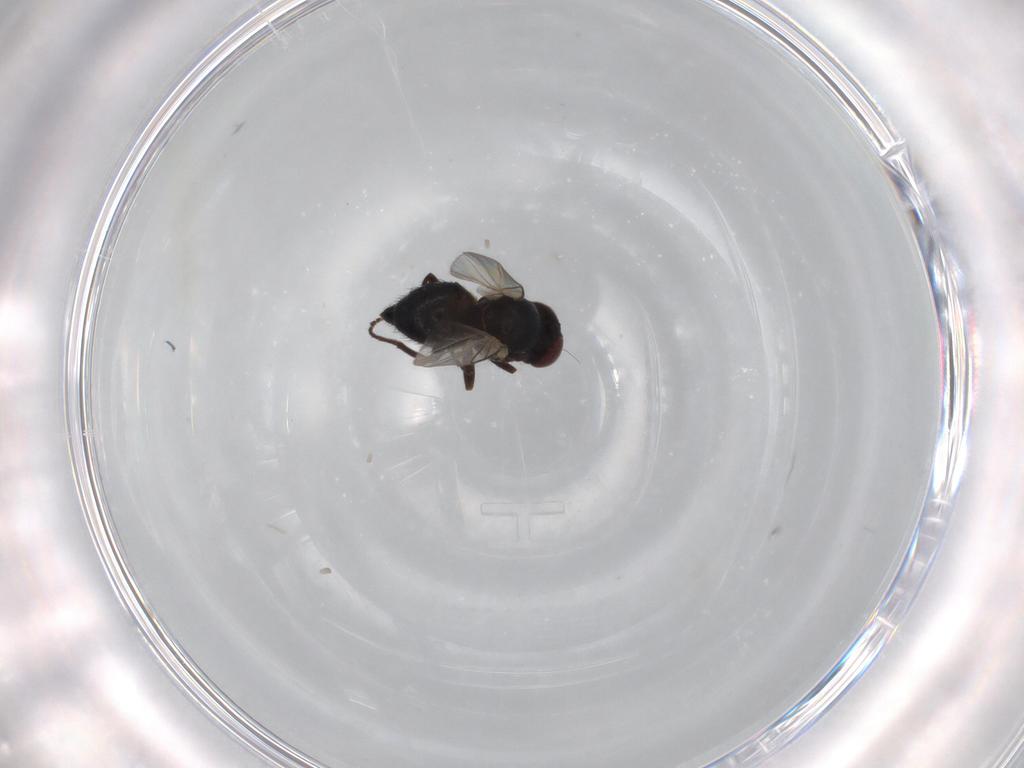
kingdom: Animalia
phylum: Arthropoda
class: Insecta
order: Diptera
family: Agromyzidae
